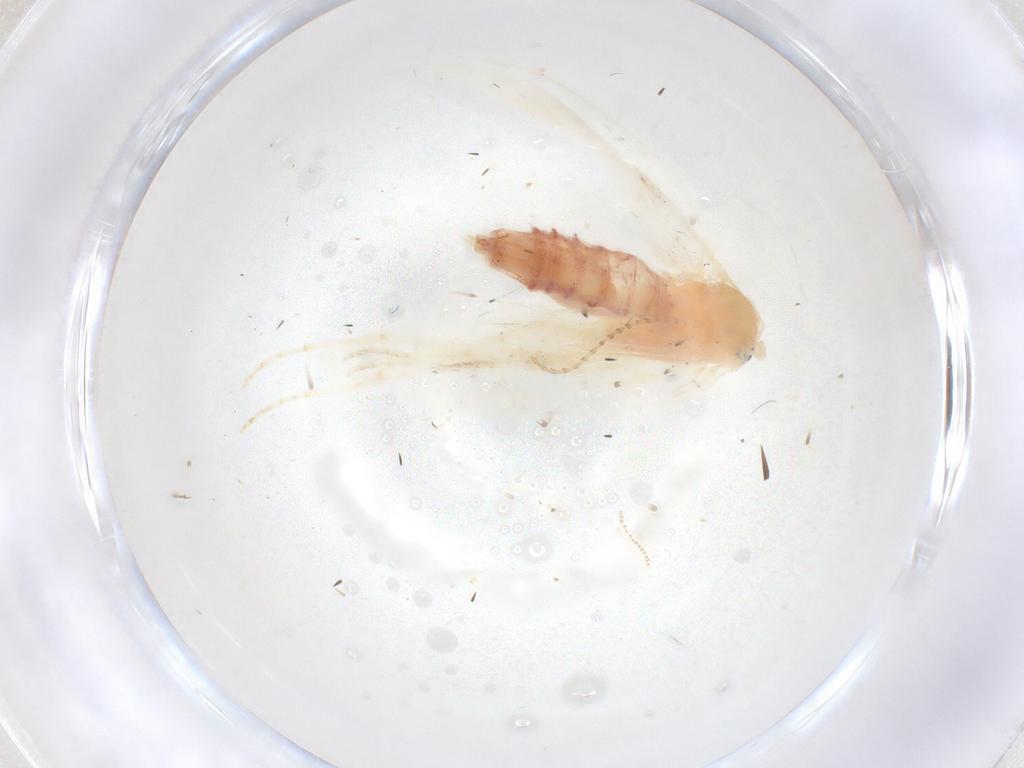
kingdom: Animalia
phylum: Arthropoda
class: Insecta
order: Lepidoptera
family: Argyresthiidae
